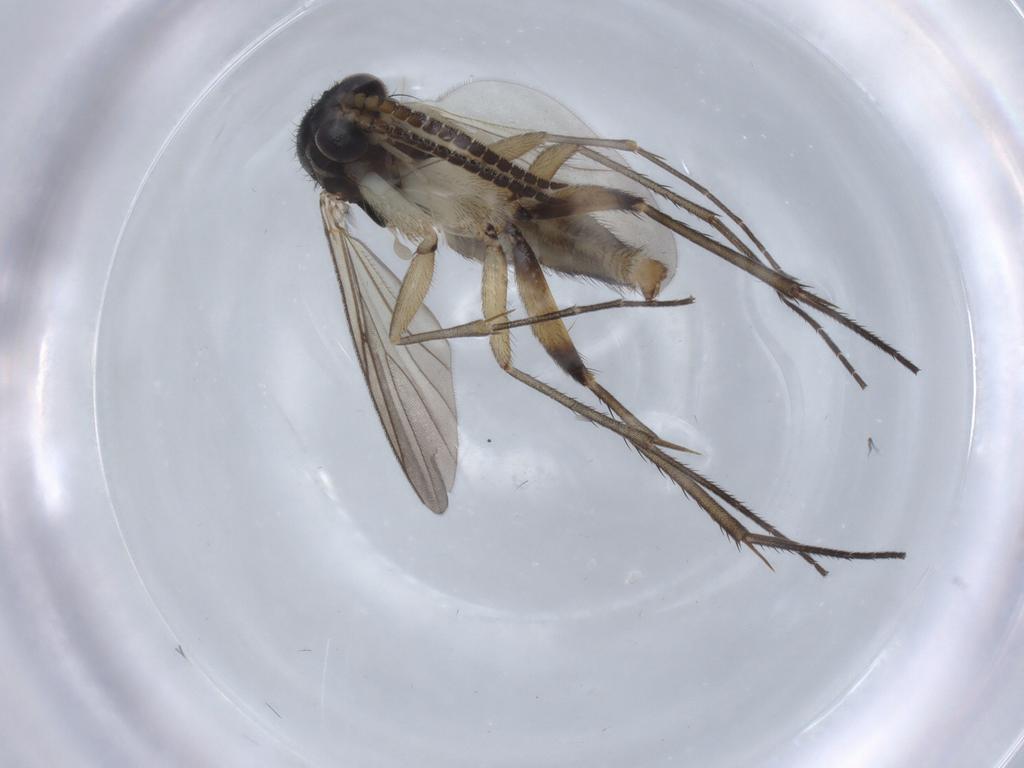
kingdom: Animalia
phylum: Arthropoda
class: Insecta
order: Diptera
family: Mycetophilidae
